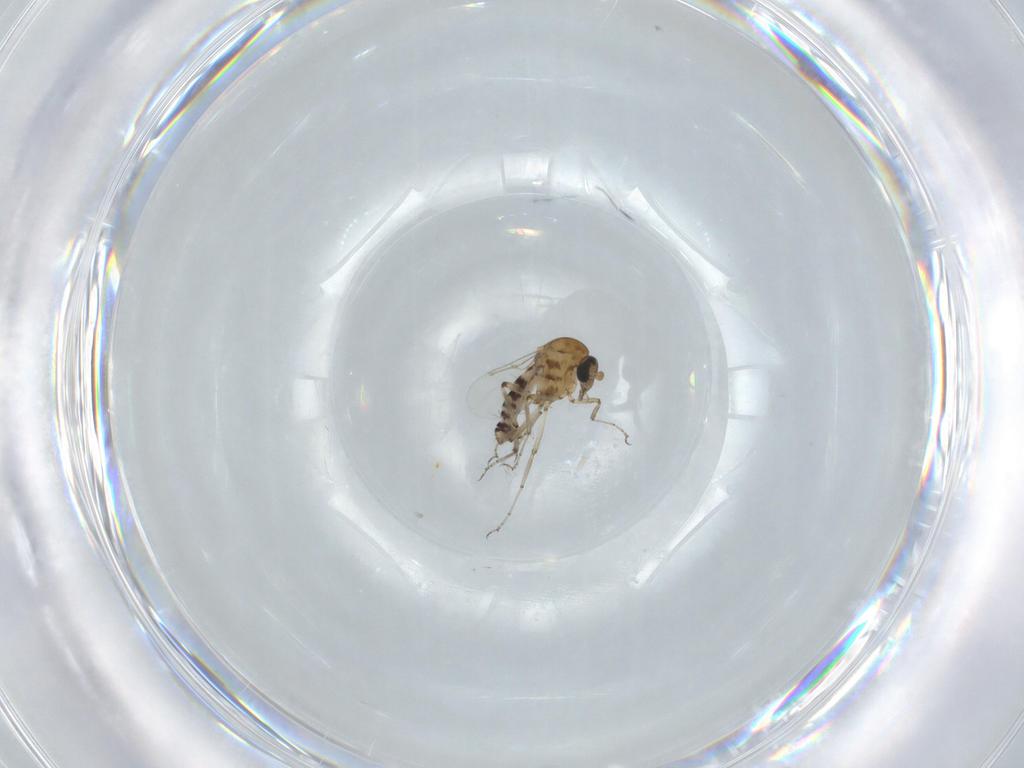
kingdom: Animalia
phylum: Arthropoda
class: Insecta
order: Diptera
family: Ceratopogonidae
